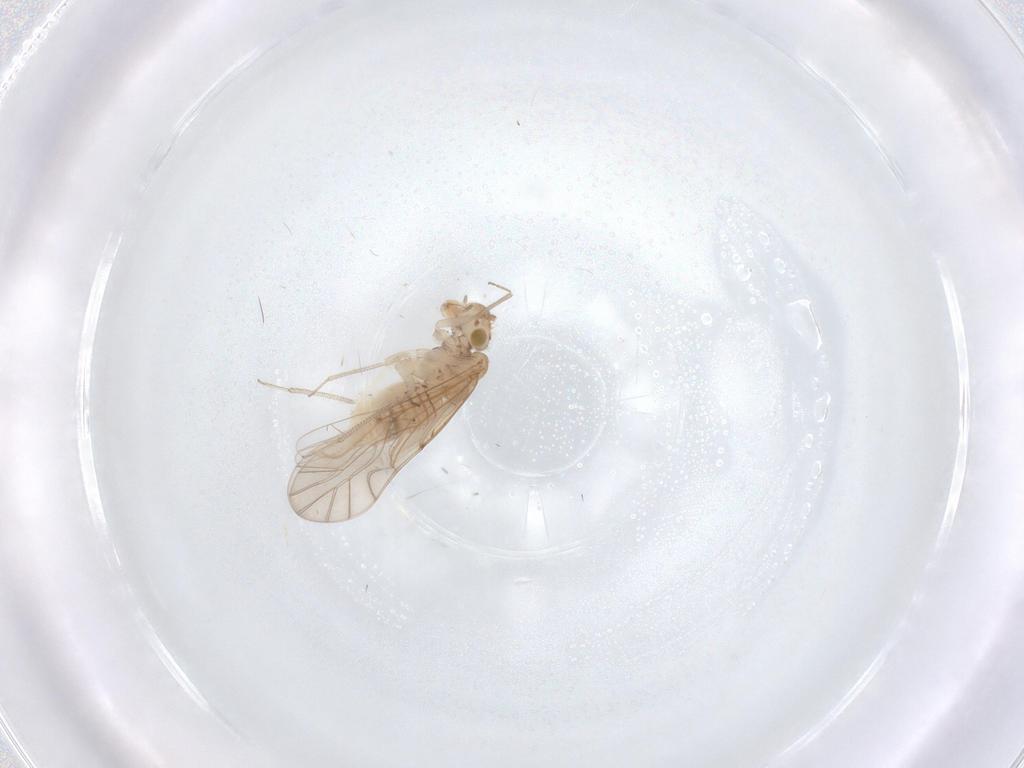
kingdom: Animalia
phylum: Arthropoda
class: Insecta
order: Psocodea
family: Lachesillidae
